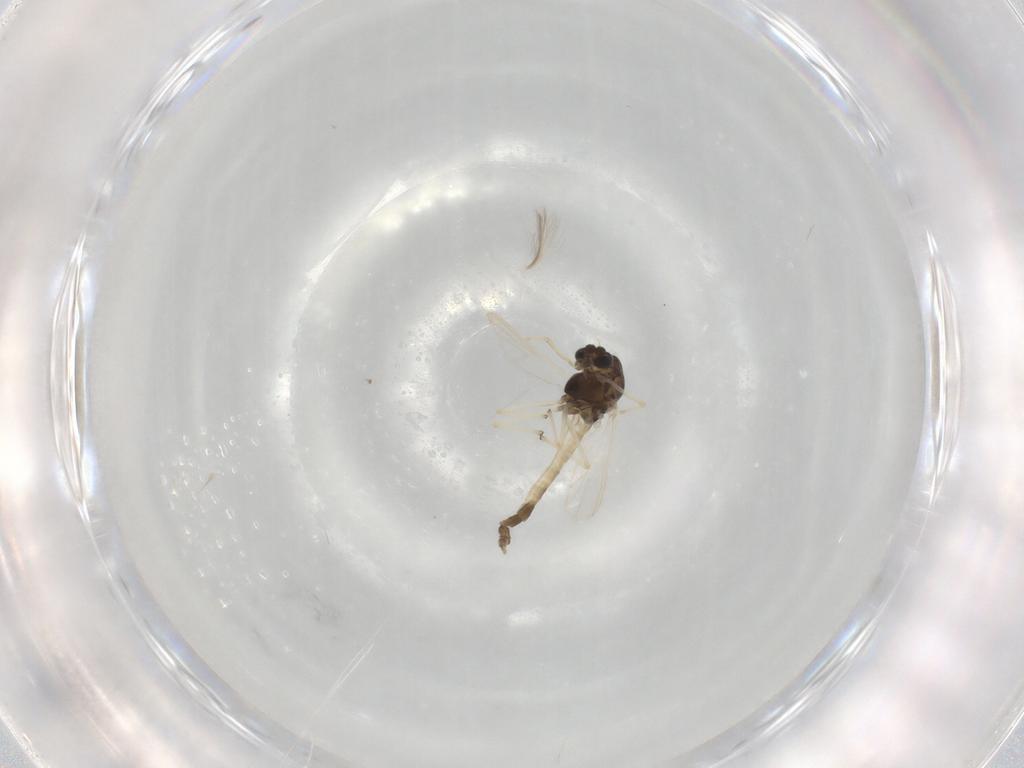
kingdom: Animalia
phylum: Arthropoda
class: Insecta
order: Diptera
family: Chironomidae
